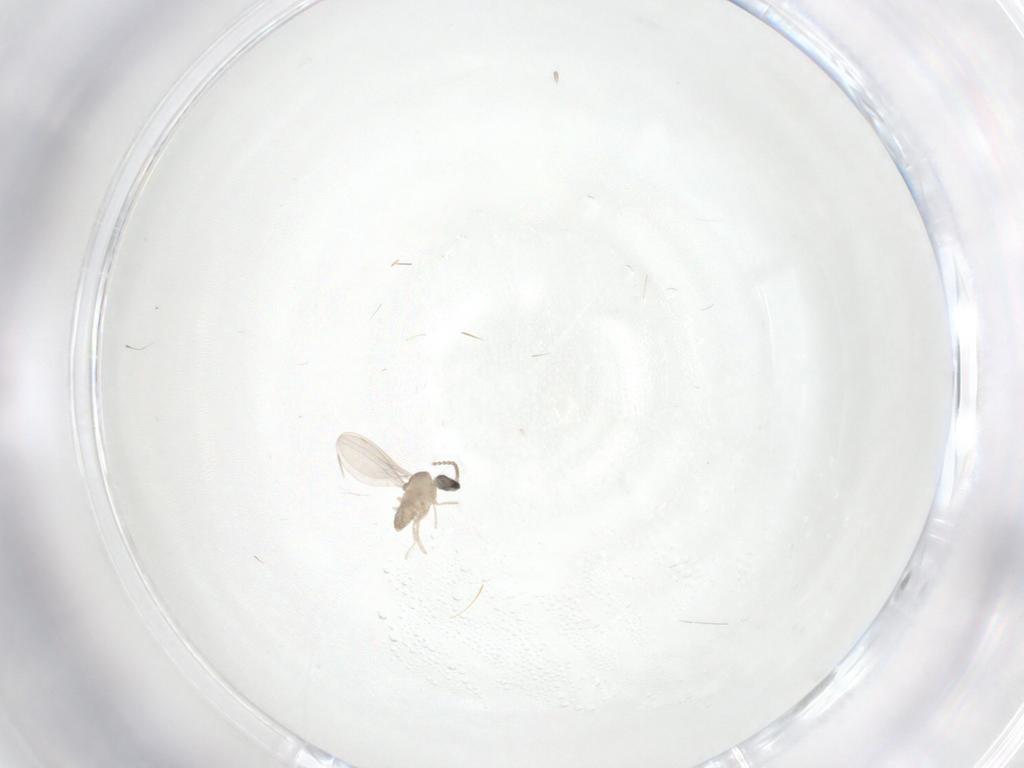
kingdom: Animalia
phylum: Arthropoda
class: Insecta
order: Diptera
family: Cecidomyiidae
